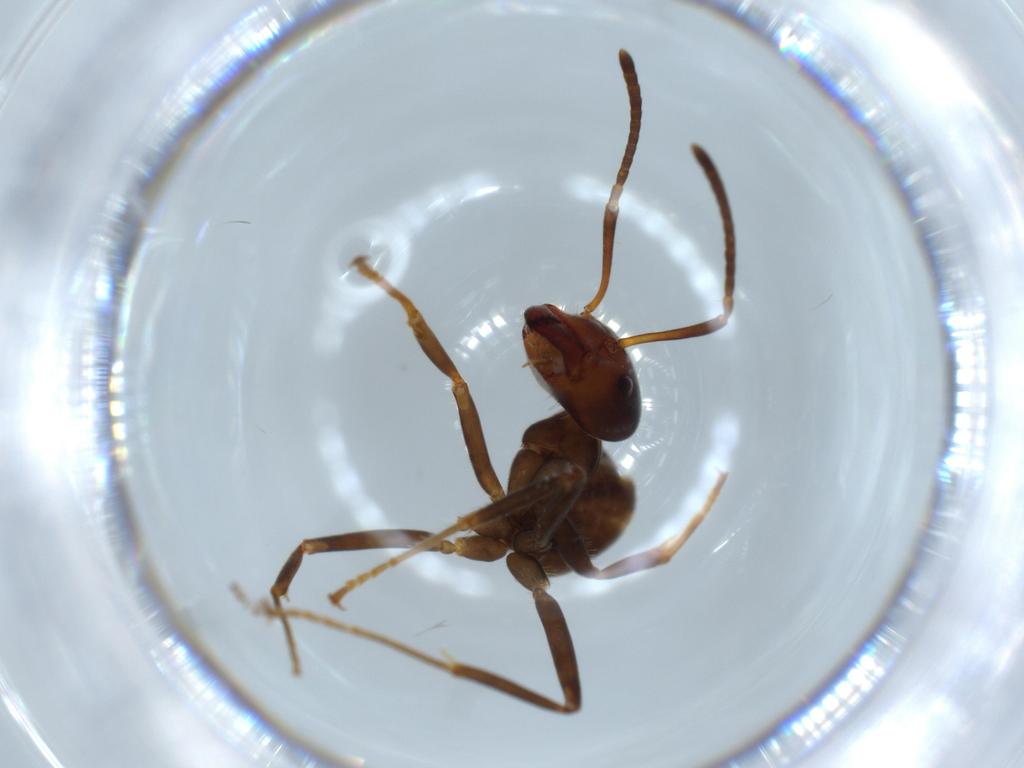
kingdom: Animalia
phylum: Arthropoda
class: Insecta
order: Hymenoptera
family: Formicidae
